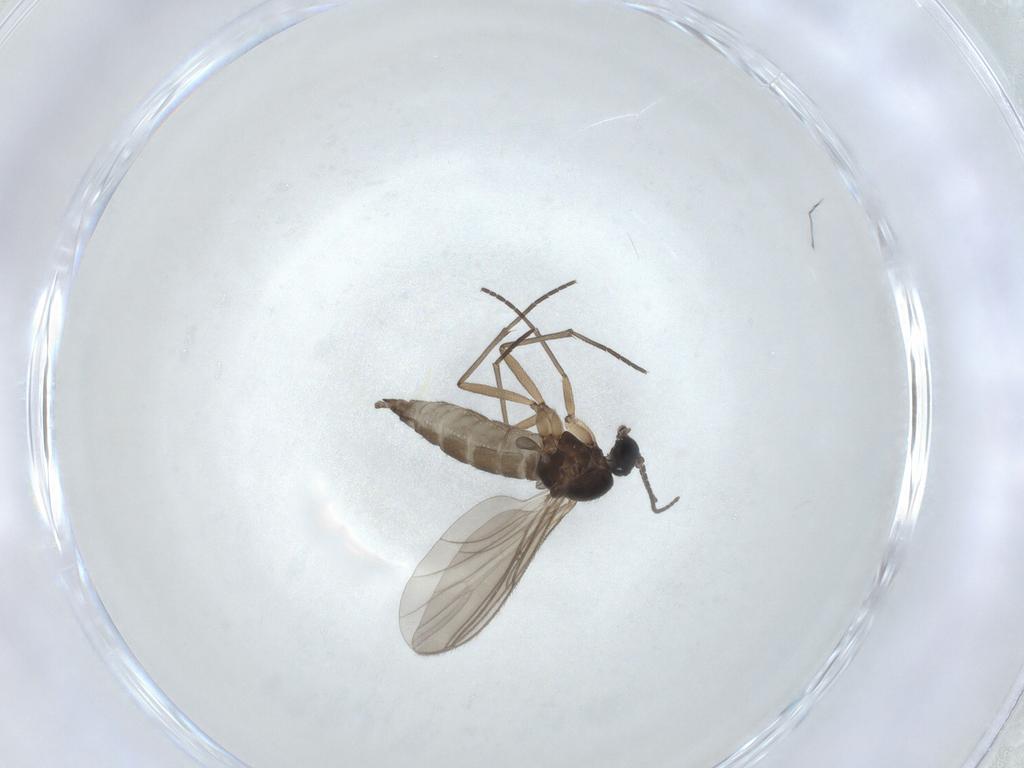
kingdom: Animalia
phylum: Arthropoda
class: Insecta
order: Diptera
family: Sciaridae
